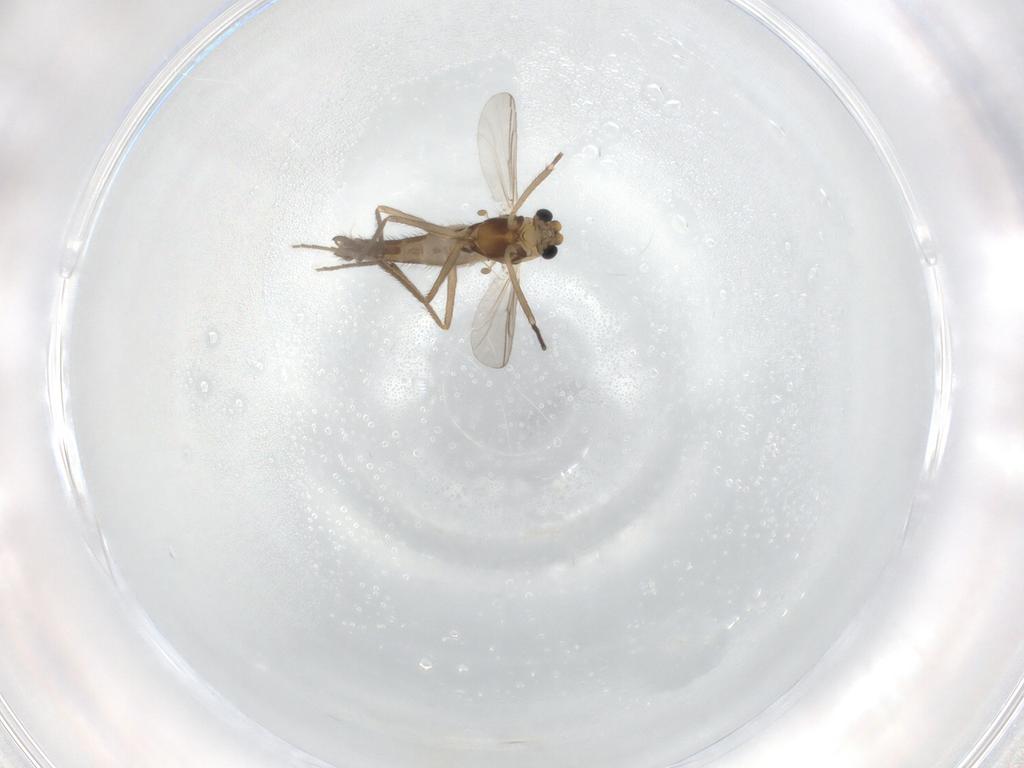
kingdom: Animalia
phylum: Arthropoda
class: Insecta
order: Diptera
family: Chironomidae
